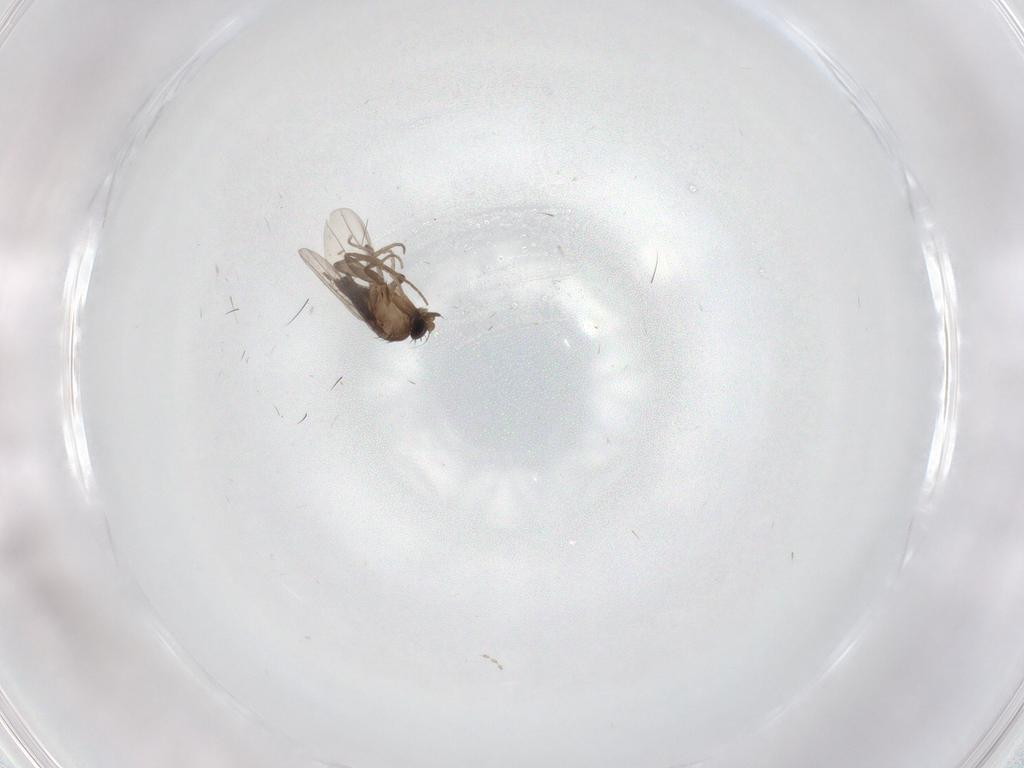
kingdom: Animalia
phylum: Arthropoda
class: Insecta
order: Diptera
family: Phoridae
